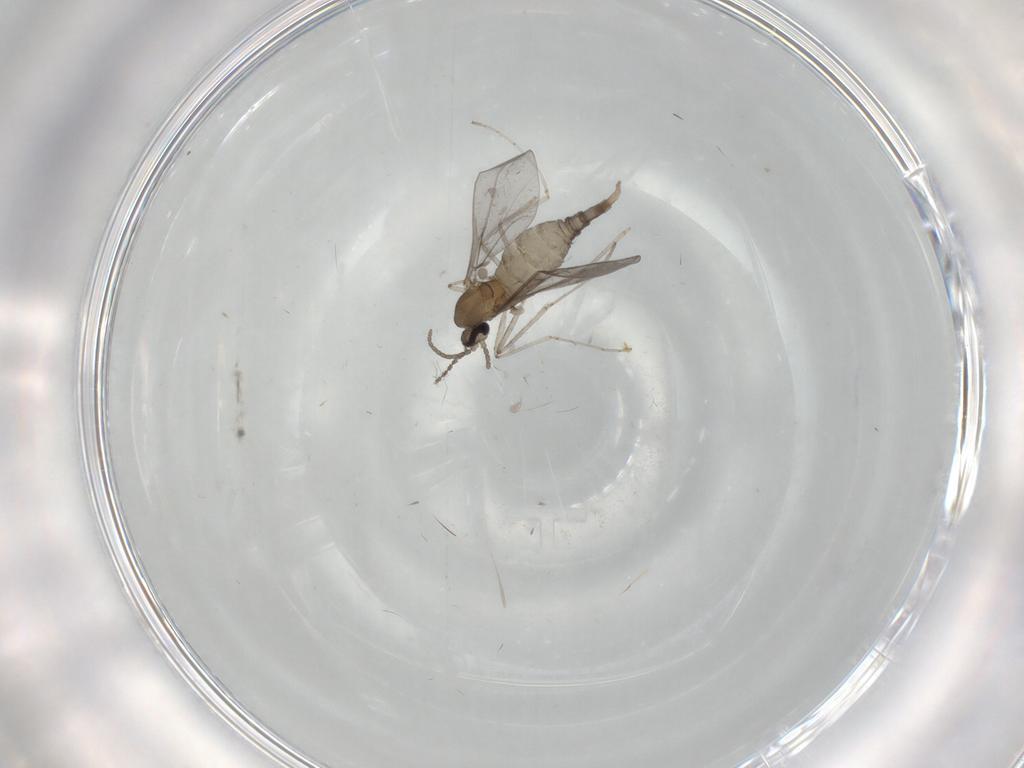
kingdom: Animalia
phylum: Arthropoda
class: Insecta
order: Diptera
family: Cecidomyiidae
